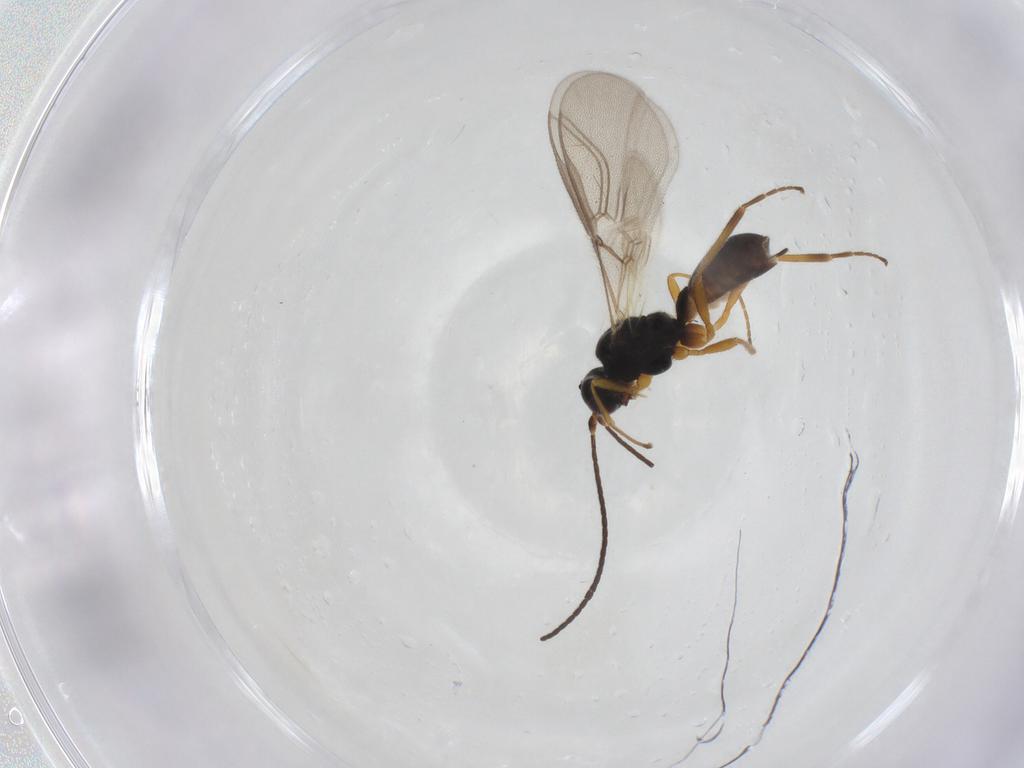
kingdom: Animalia
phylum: Arthropoda
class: Insecta
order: Hymenoptera
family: Braconidae
